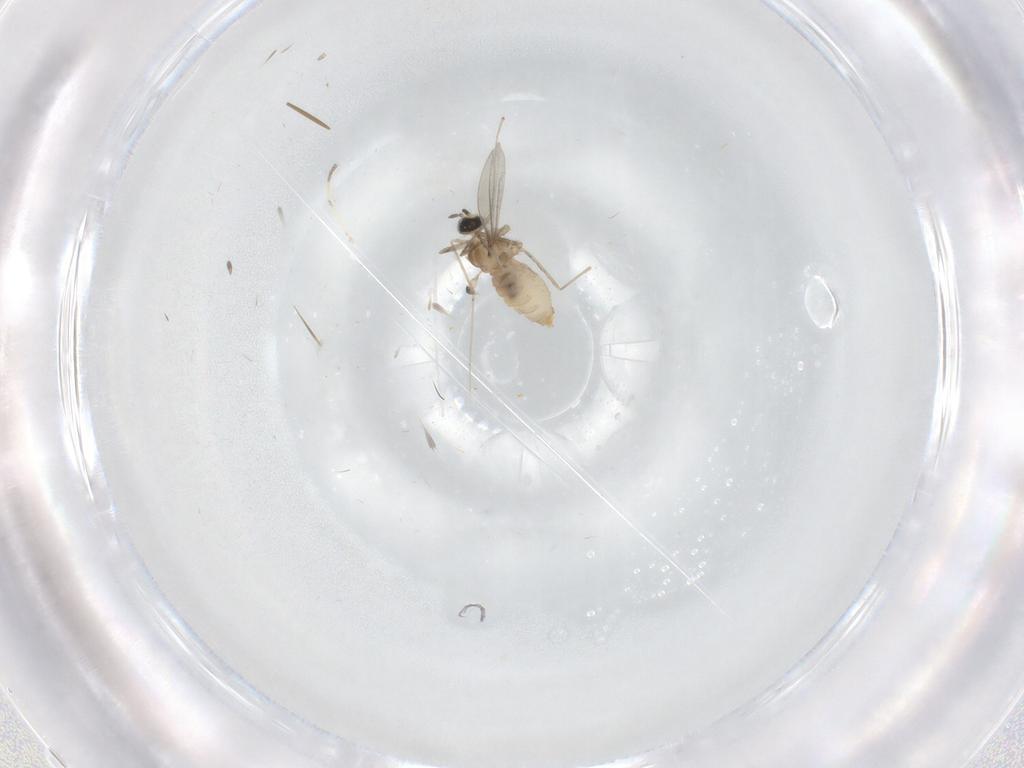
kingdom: Animalia
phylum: Arthropoda
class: Insecta
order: Diptera
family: Cecidomyiidae
